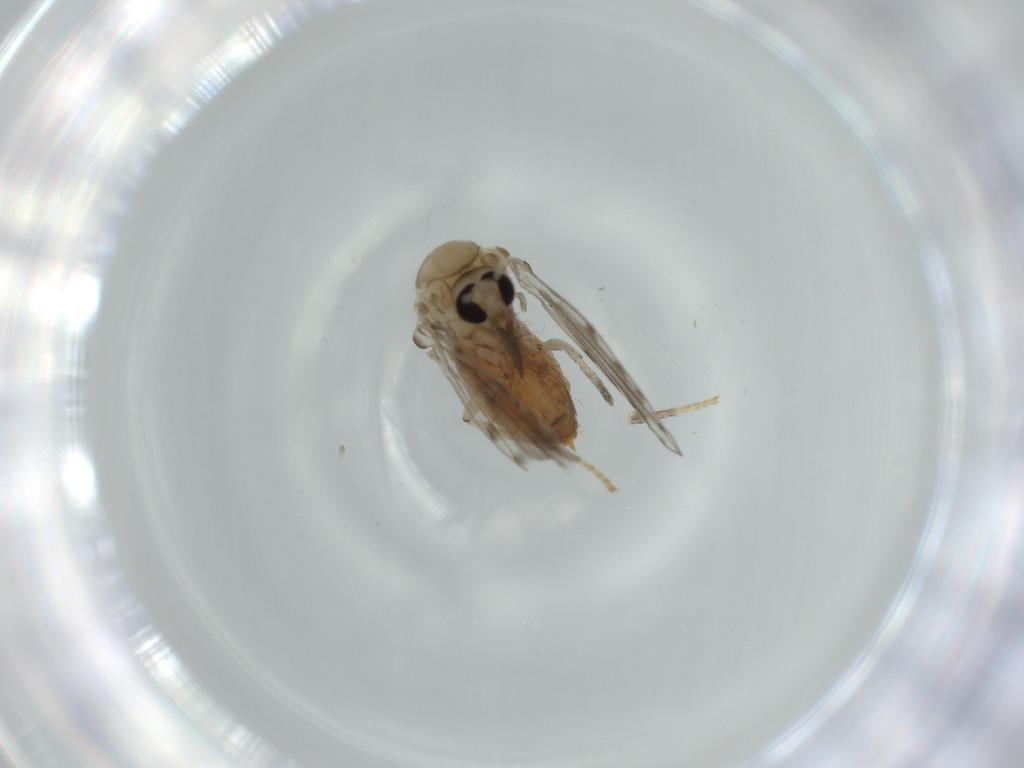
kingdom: Animalia
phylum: Arthropoda
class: Insecta
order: Diptera
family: Psychodidae
